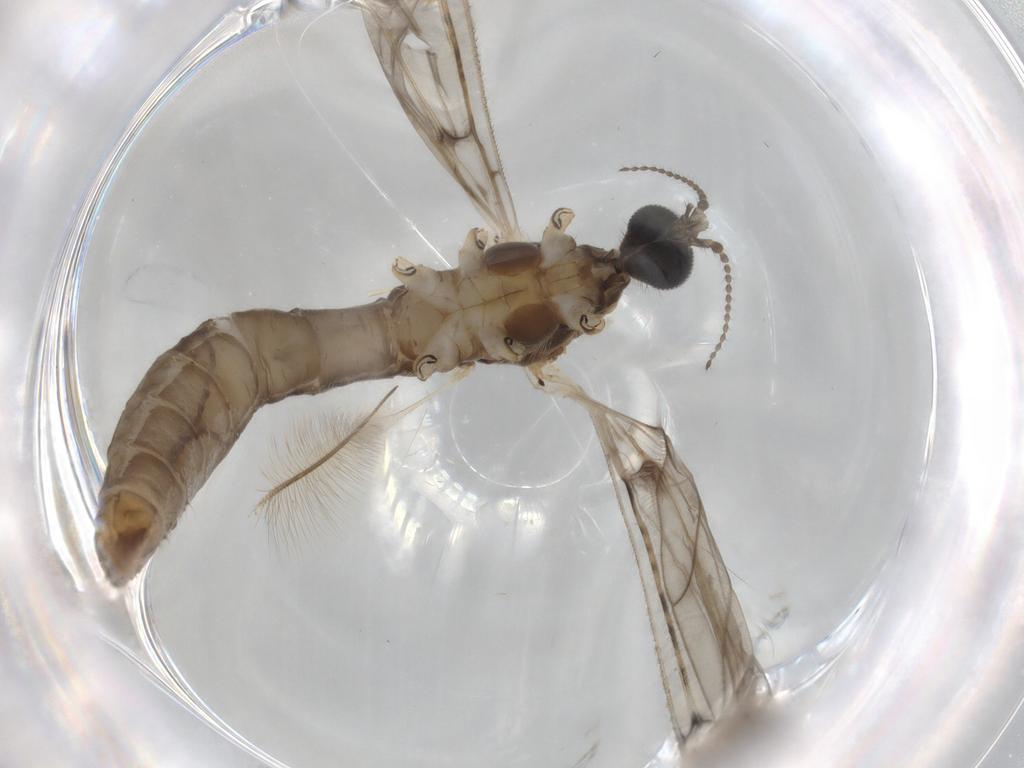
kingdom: Animalia
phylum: Arthropoda
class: Insecta
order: Diptera
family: Limoniidae
